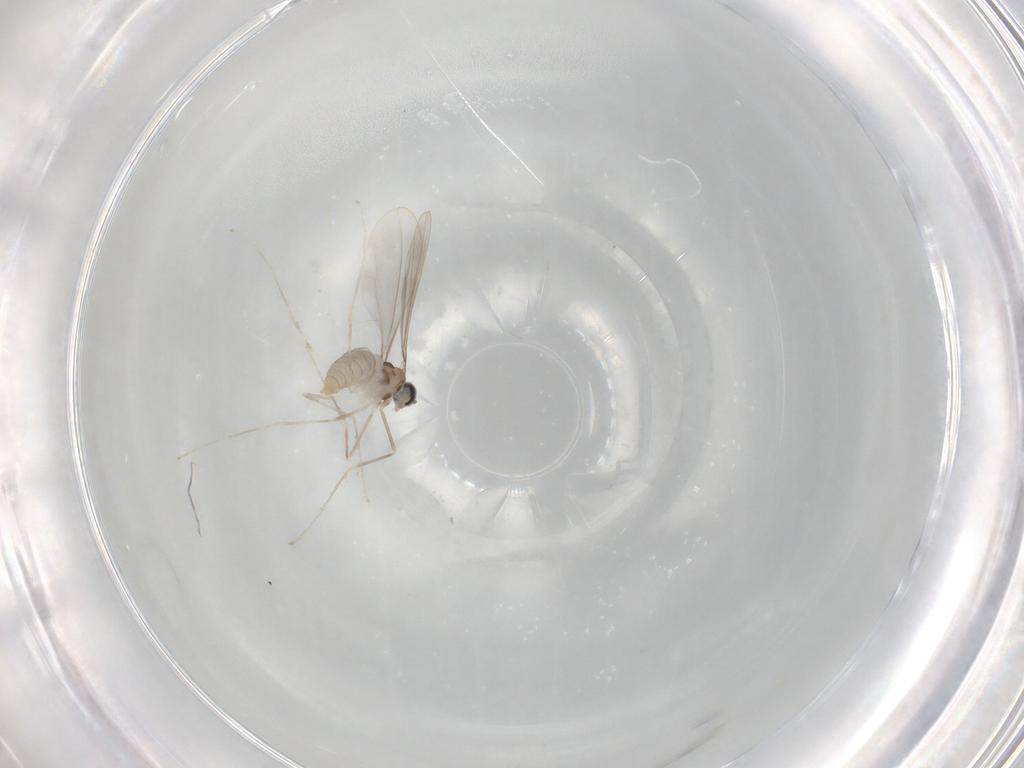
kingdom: Animalia
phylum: Arthropoda
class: Insecta
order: Diptera
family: Cecidomyiidae
